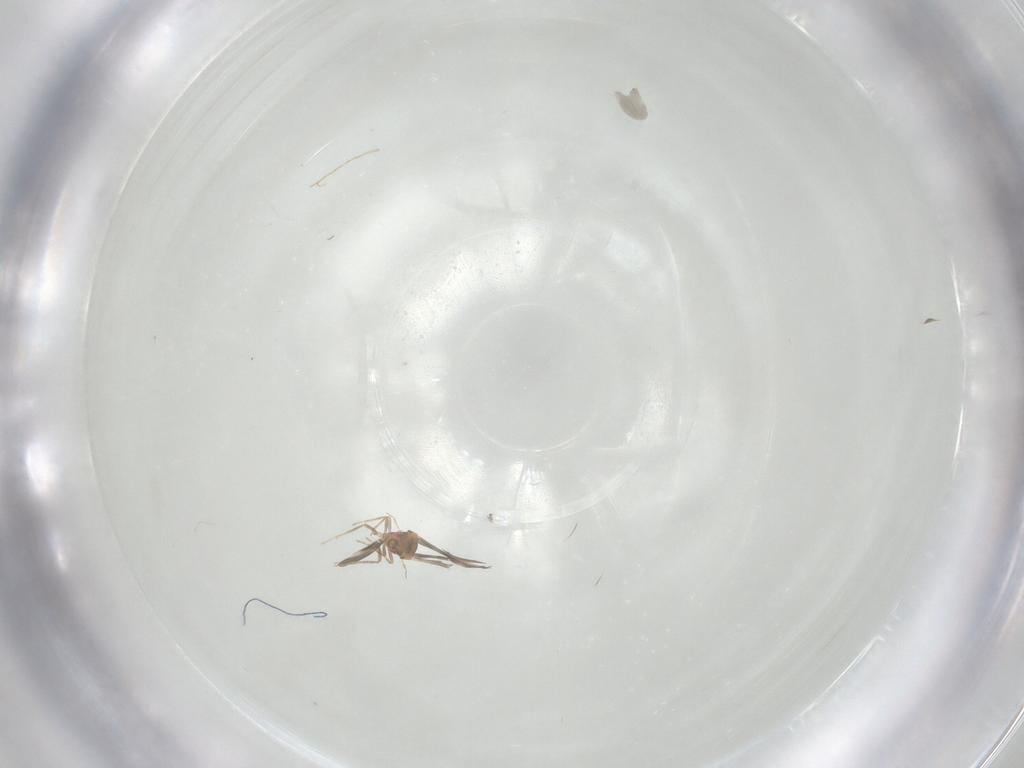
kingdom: Animalia
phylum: Arthropoda
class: Insecta
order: Hemiptera
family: Aleyrodidae
